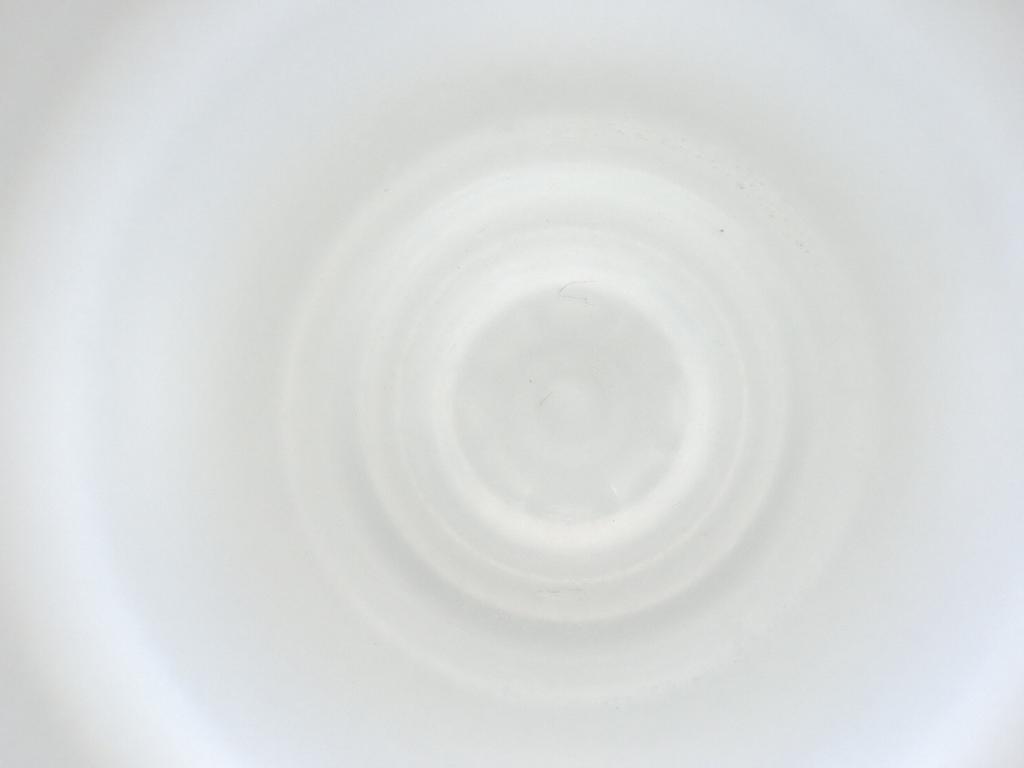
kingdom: Animalia
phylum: Arthropoda
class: Insecta
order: Diptera
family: Cecidomyiidae
